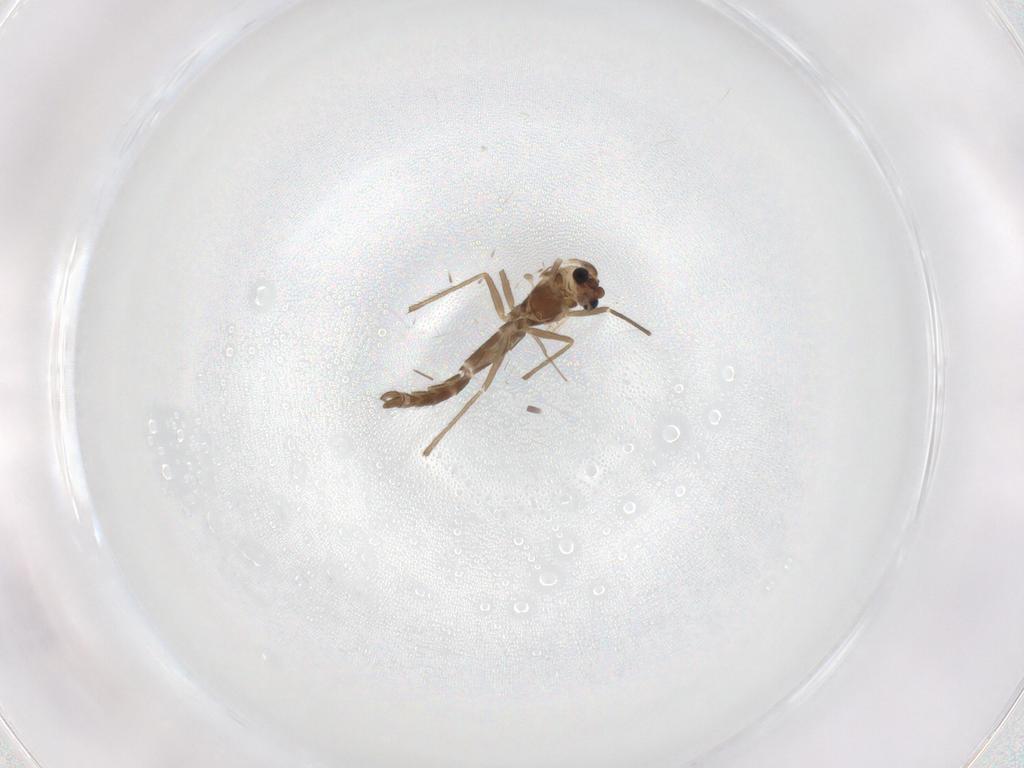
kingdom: Animalia
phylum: Arthropoda
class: Insecta
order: Diptera
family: Chironomidae
